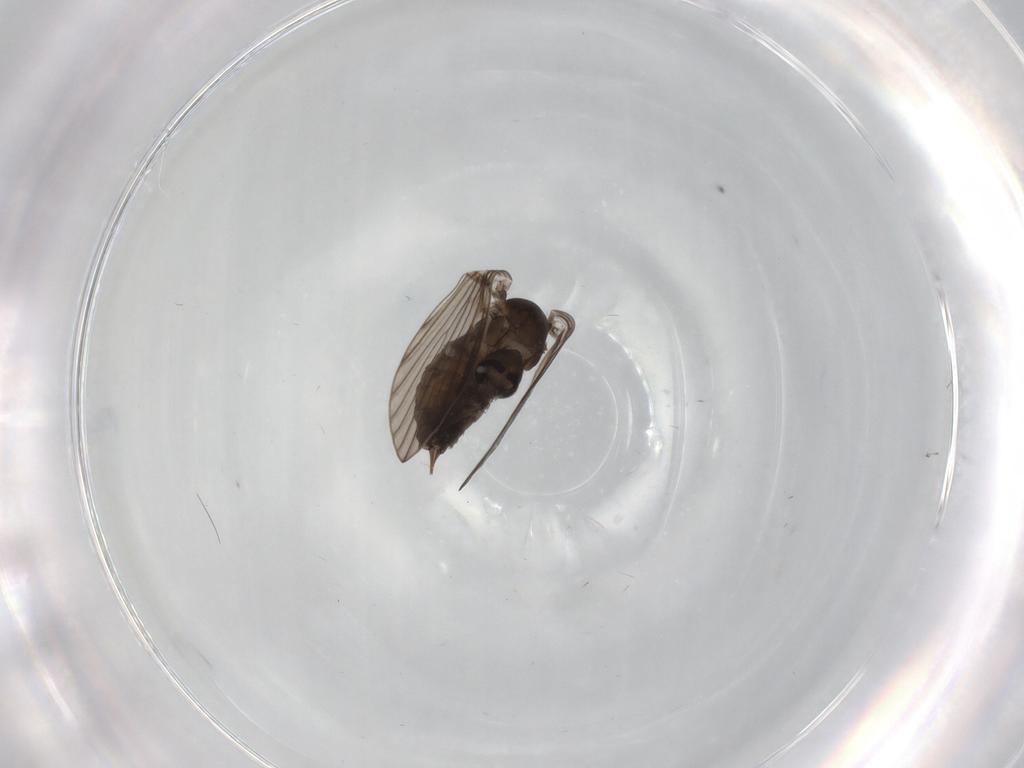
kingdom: Animalia
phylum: Arthropoda
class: Insecta
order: Diptera
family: Psychodidae
